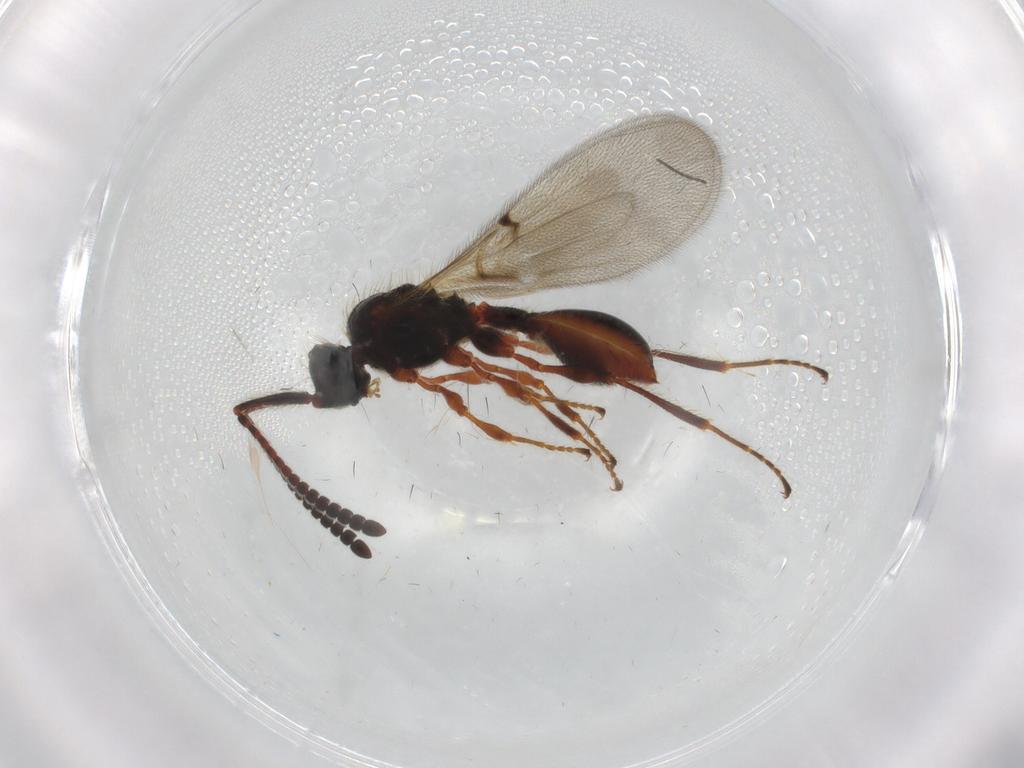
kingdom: Animalia
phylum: Arthropoda
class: Insecta
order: Hymenoptera
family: Diapriidae
